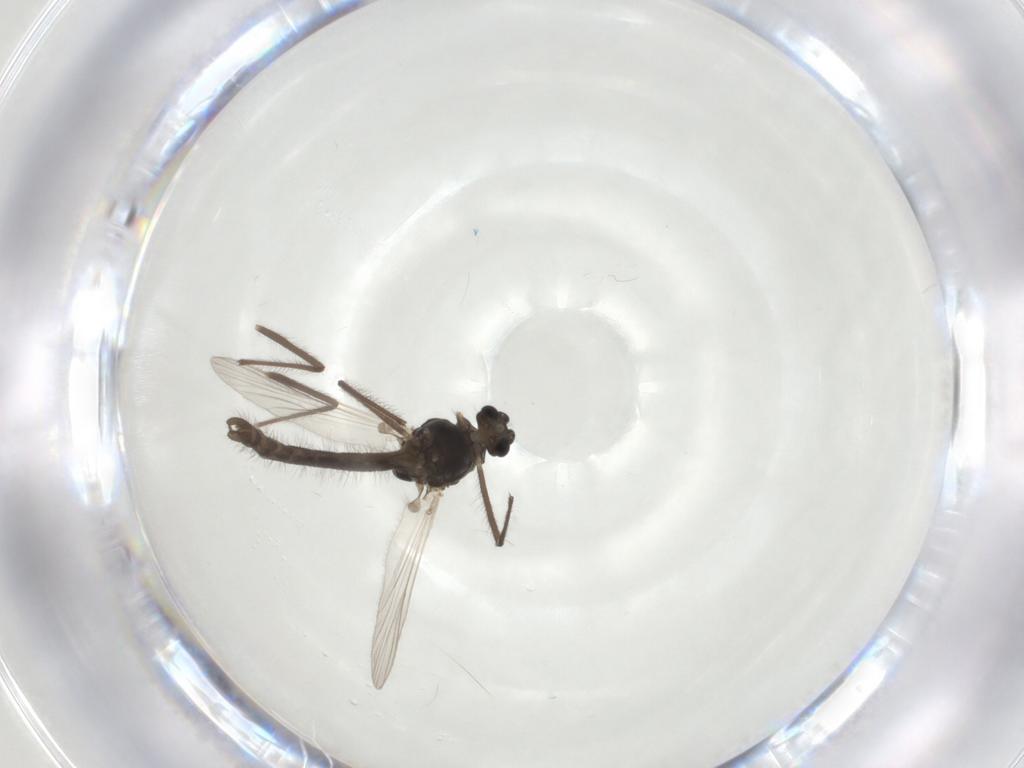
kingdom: Animalia
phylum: Arthropoda
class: Insecta
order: Diptera
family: Chironomidae
